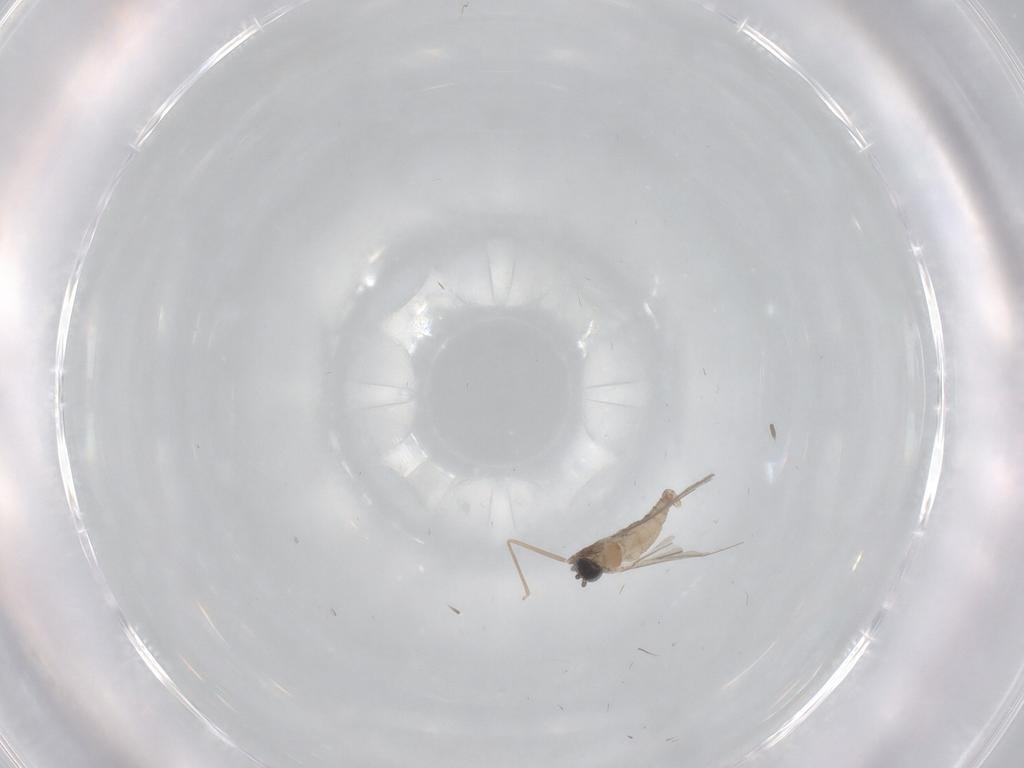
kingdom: Animalia
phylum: Arthropoda
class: Insecta
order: Diptera
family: Cecidomyiidae
